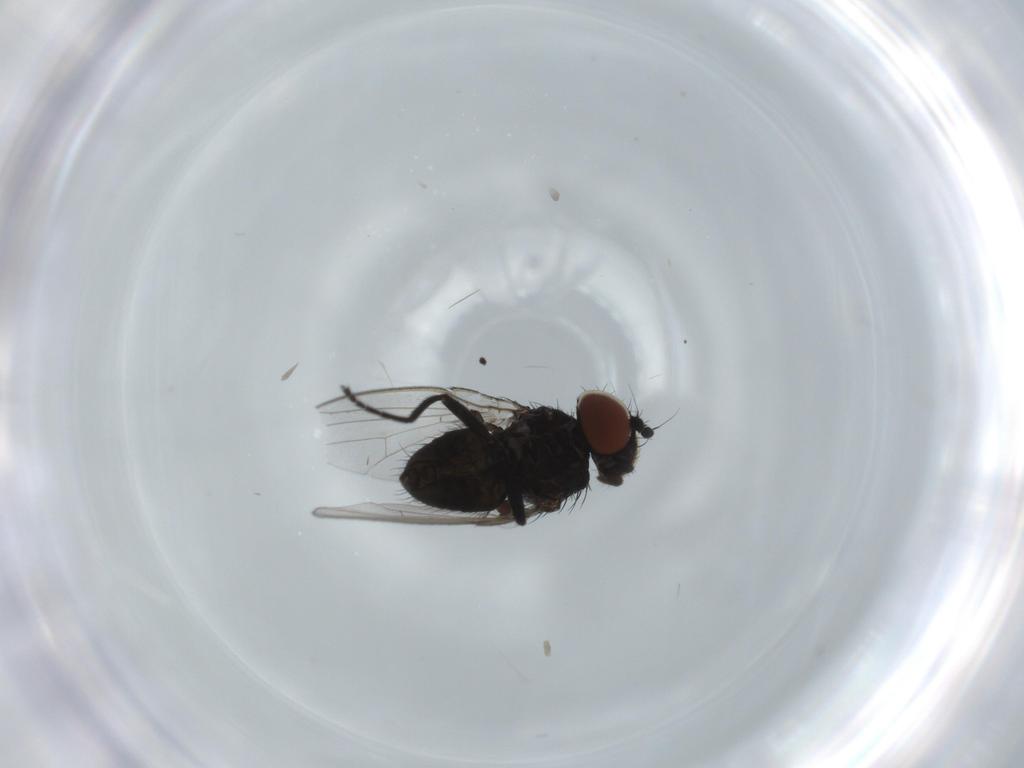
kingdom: Animalia
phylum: Arthropoda
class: Insecta
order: Diptera
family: Milichiidae
